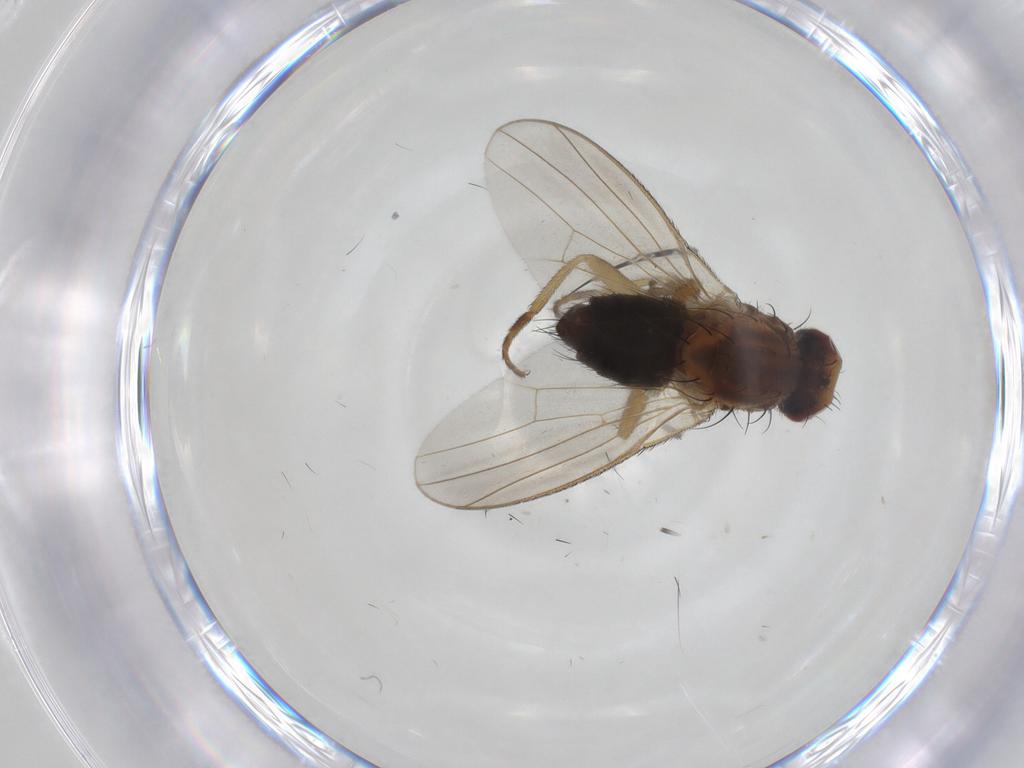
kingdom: Animalia
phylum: Arthropoda
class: Insecta
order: Diptera
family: Heleomyzidae
